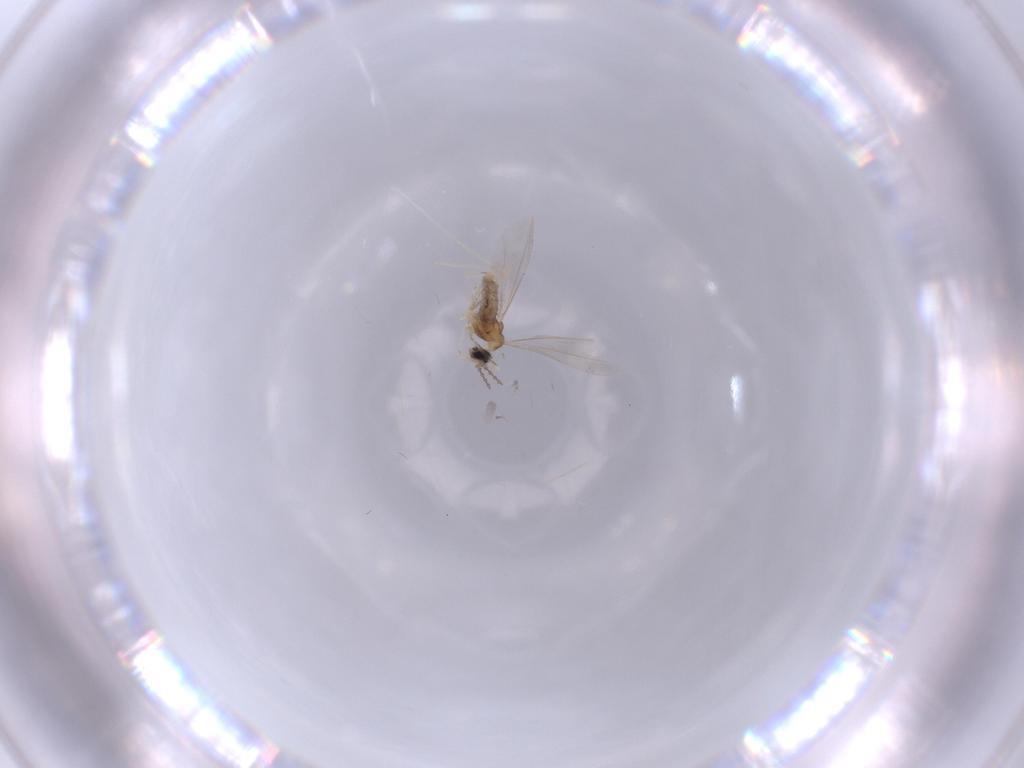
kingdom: Animalia
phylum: Arthropoda
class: Insecta
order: Diptera
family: Cecidomyiidae
